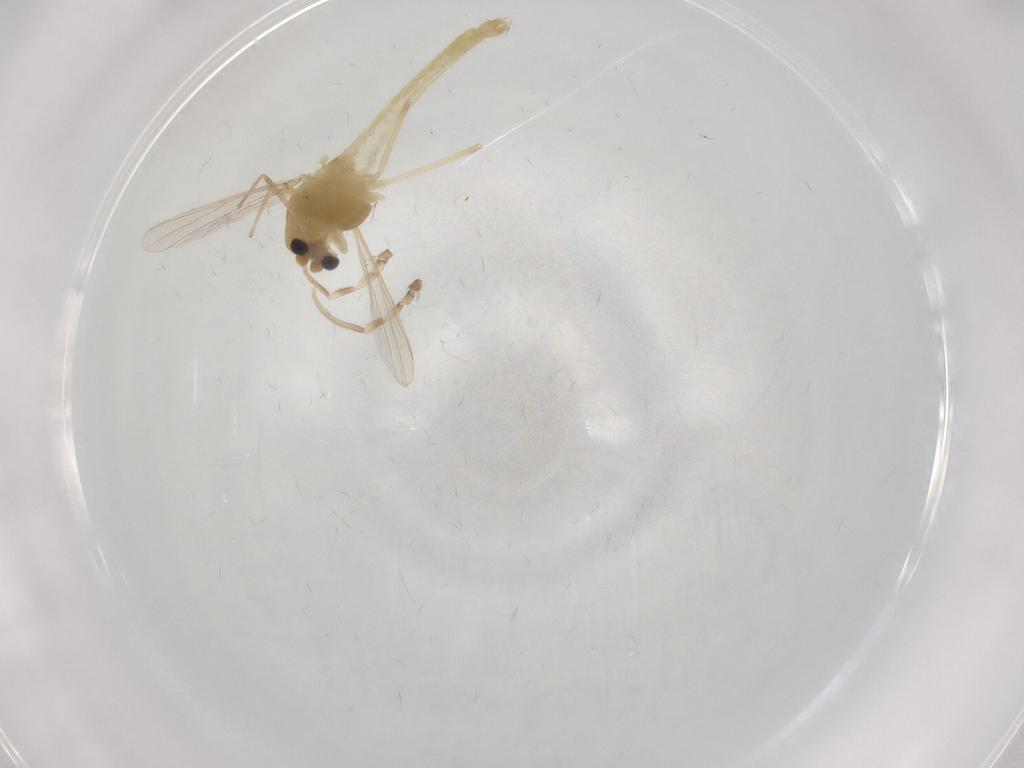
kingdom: Animalia
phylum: Arthropoda
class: Insecta
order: Diptera
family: Chironomidae
